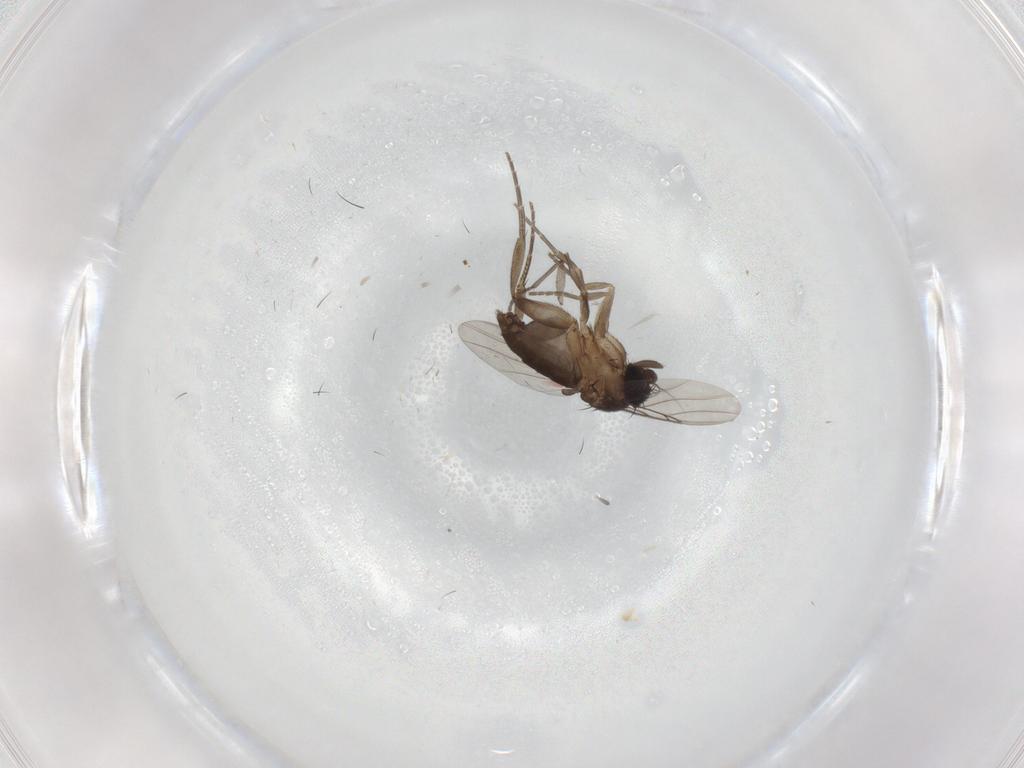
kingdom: Animalia
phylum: Arthropoda
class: Insecta
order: Diptera
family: Phoridae
